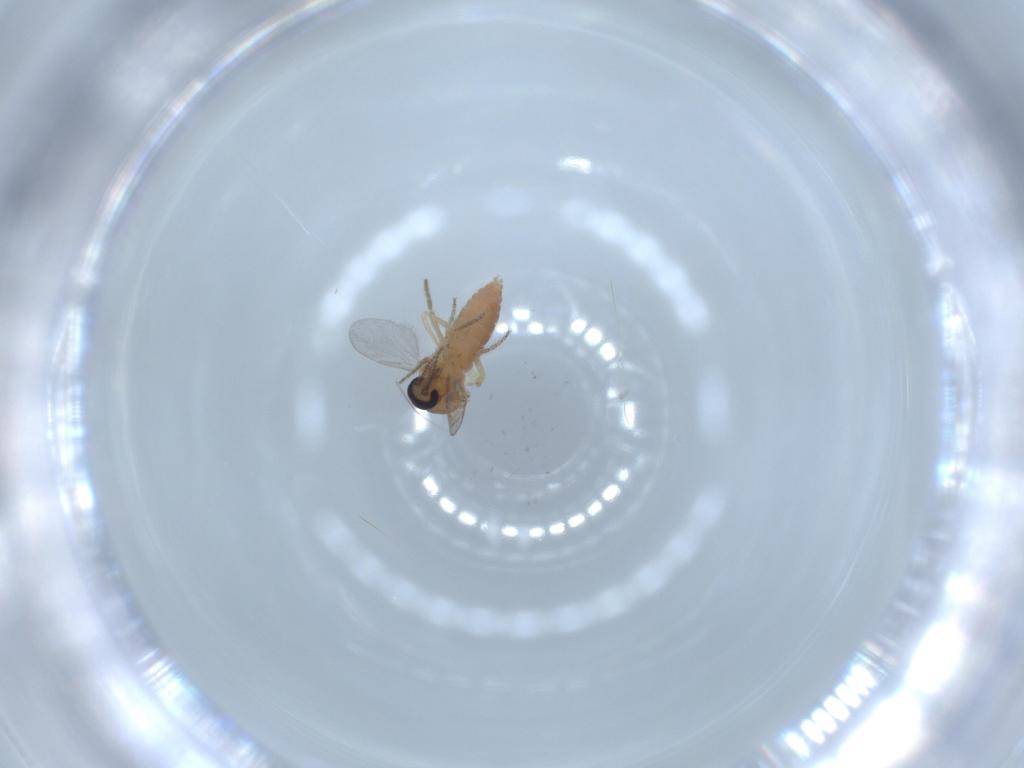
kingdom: Animalia
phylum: Arthropoda
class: Insecta
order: Diptera
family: Ceratopogonidae
